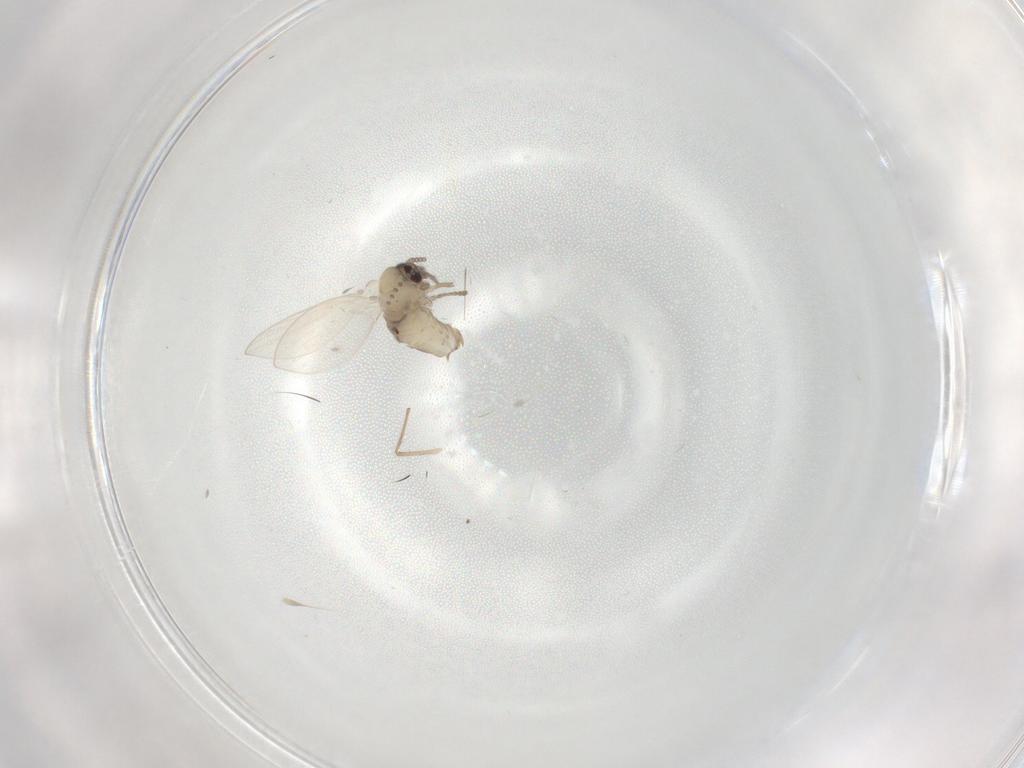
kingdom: Animalia
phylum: Arthropoda
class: Insecta
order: Diptera
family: Psychodidae
